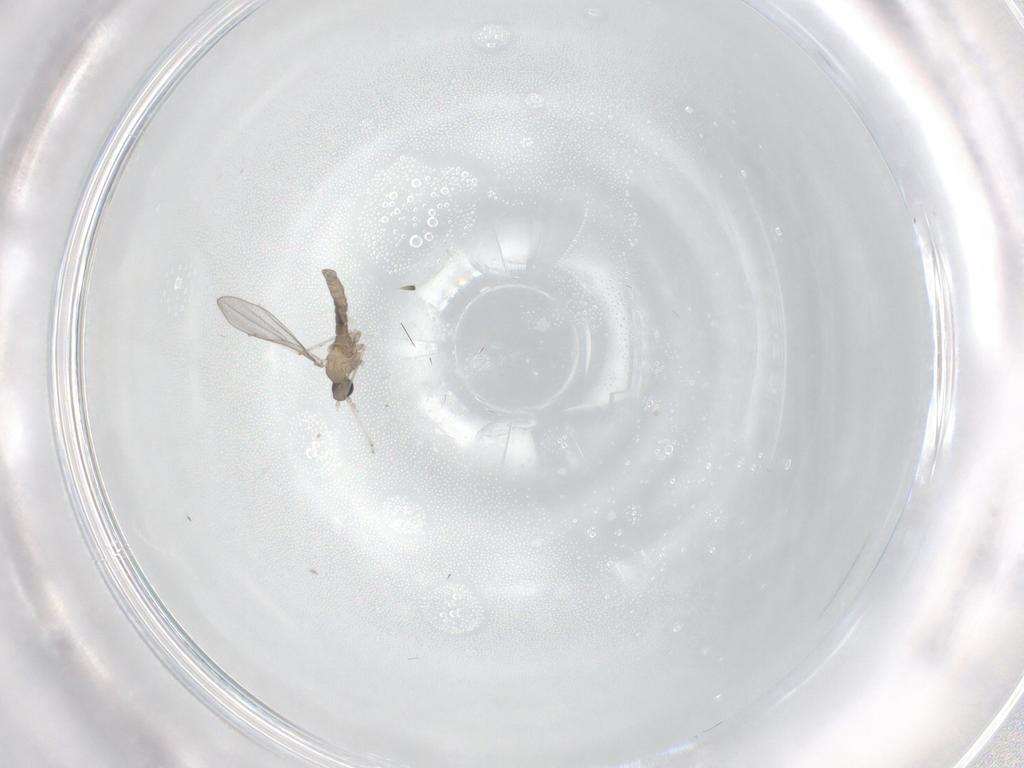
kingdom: Animalia
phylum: Arthropoda
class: Insecta
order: Diptera
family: Cecidomyiidae
